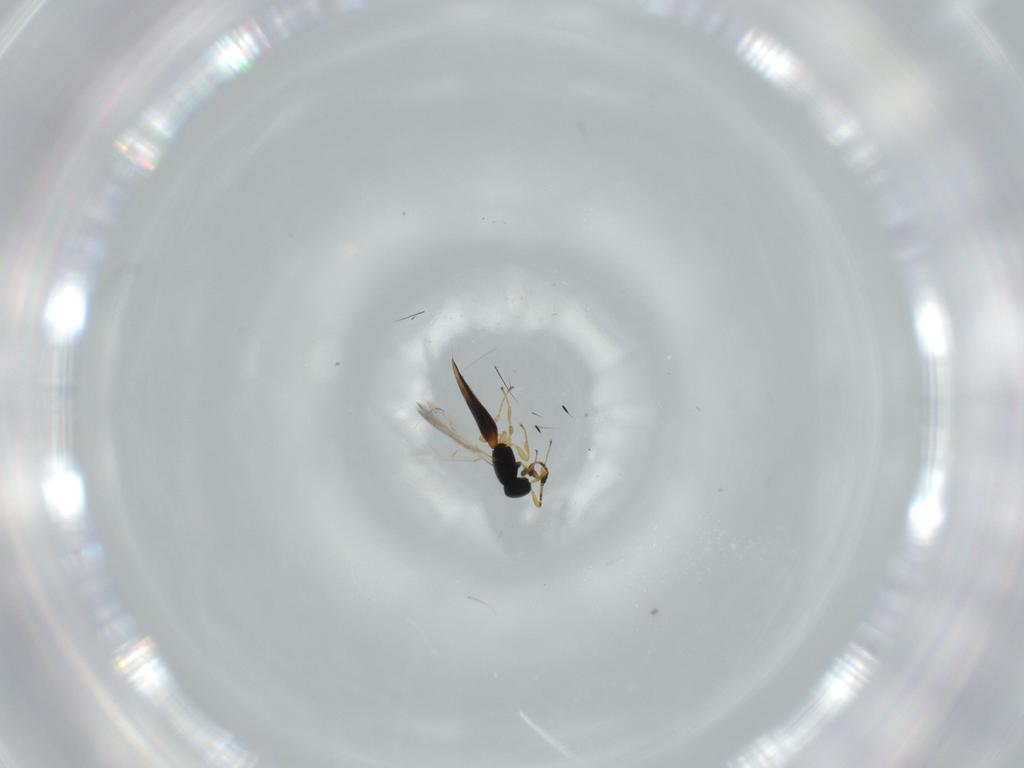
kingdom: Animalia
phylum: Arthropoda
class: Insecta
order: Hymenoptera
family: Scelionidae
